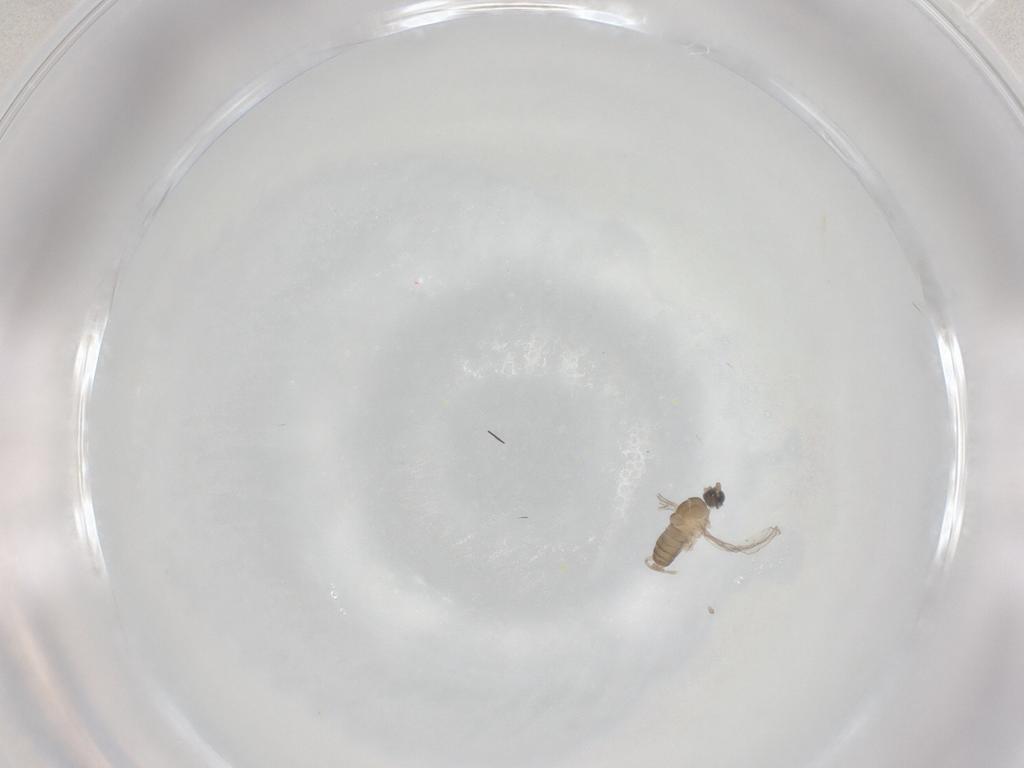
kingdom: Animalia
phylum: Arthropoda
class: Insecta
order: Diptera
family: Cecidomyiidae
